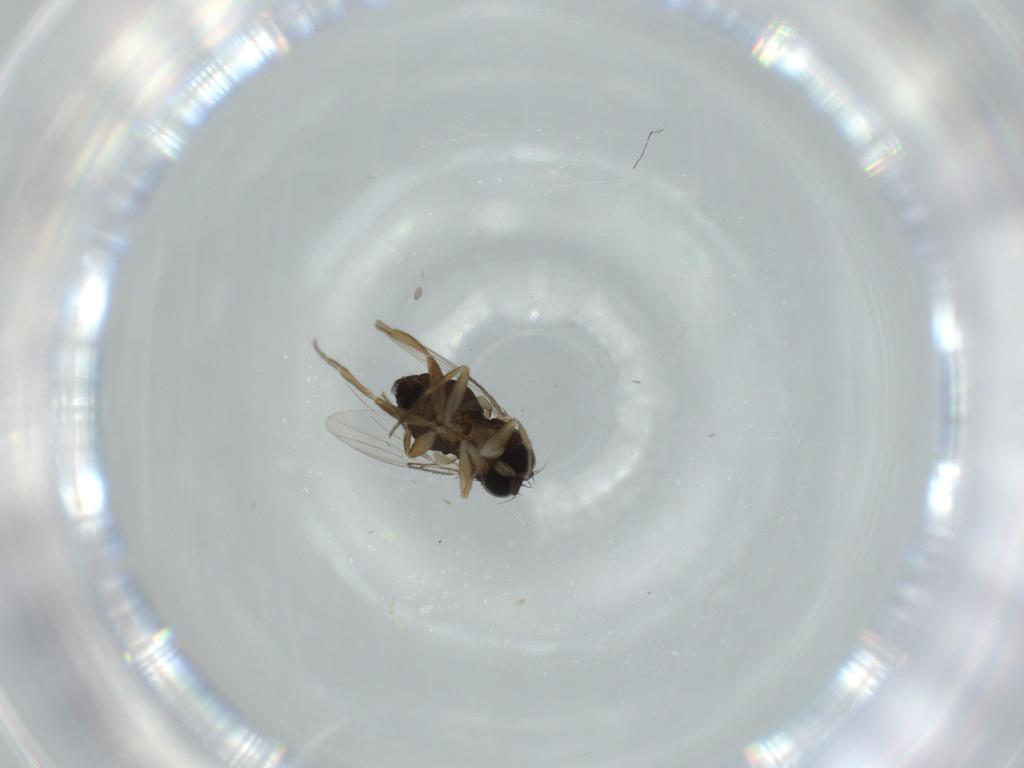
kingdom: Animalia
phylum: Arthropoda
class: Insecta
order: Diptera
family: Phoridae
